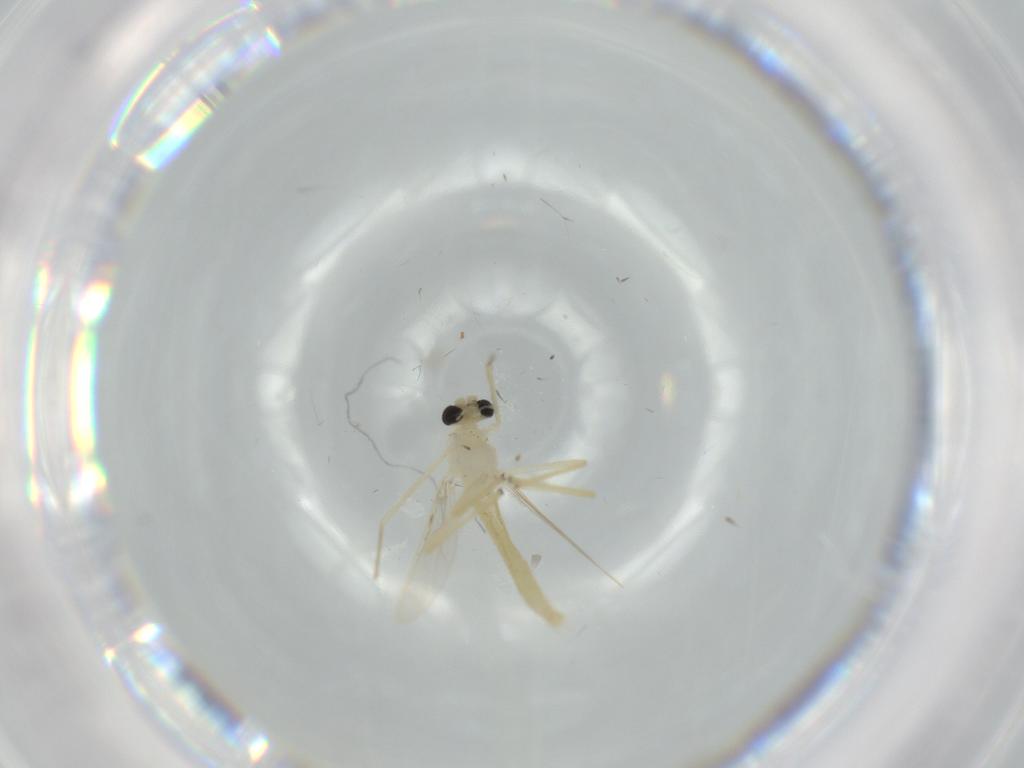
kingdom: Animalia
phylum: Arthropoda
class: Insecta
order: Diptera
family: Chironomidae
